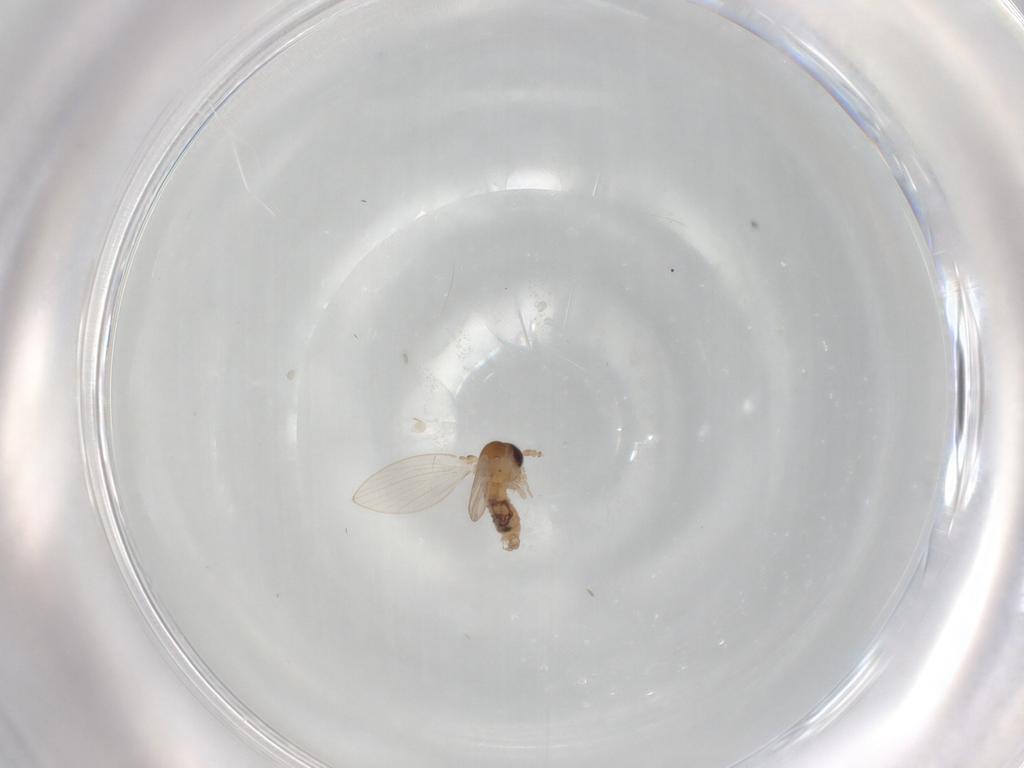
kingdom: Animalia
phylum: Arthropoda
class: Insecta
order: Diptera
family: Psychodidae
